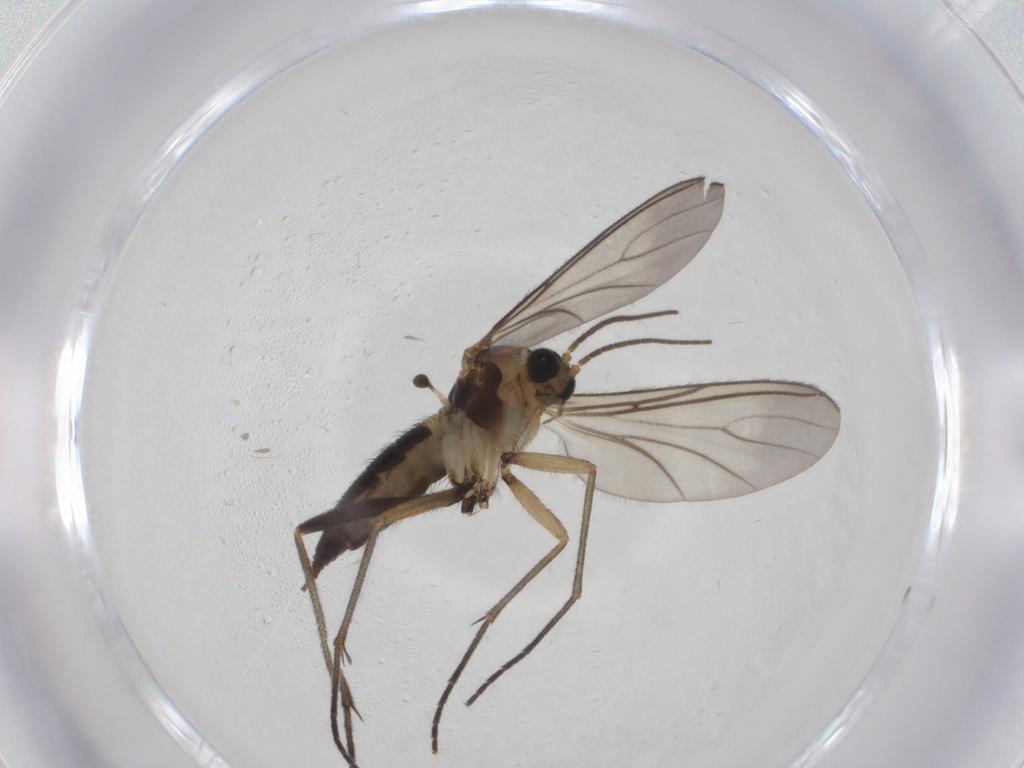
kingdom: Animalia
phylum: Arthropoda
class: Insecta
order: Diptera
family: Sciaridae
